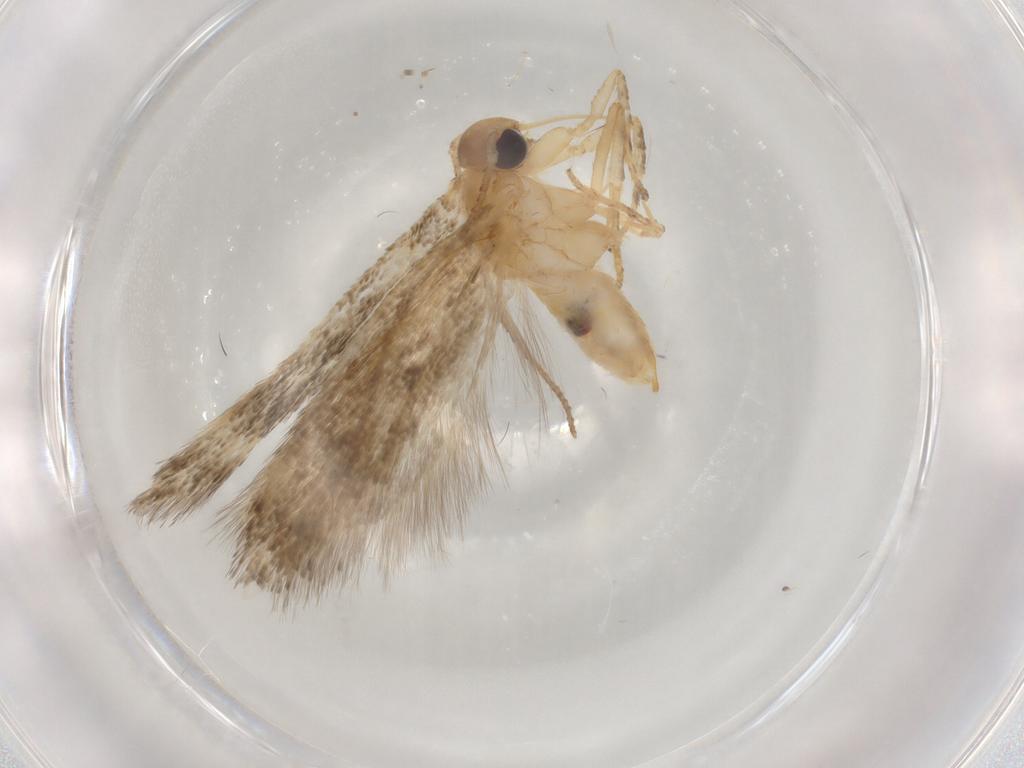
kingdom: Animalia
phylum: Arthropoda
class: Insecta
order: Lepidoptera
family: Gelechiidae
